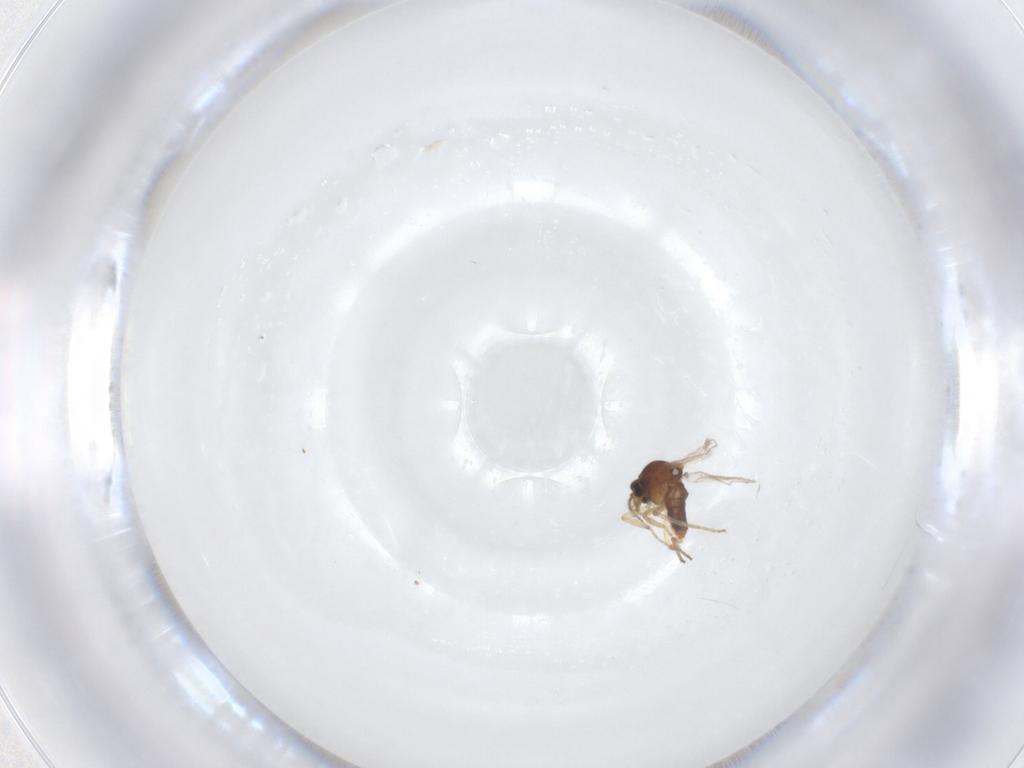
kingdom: Animalia
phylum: Arthropoda
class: Insecta
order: Diptera
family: Ceratopogonidae
